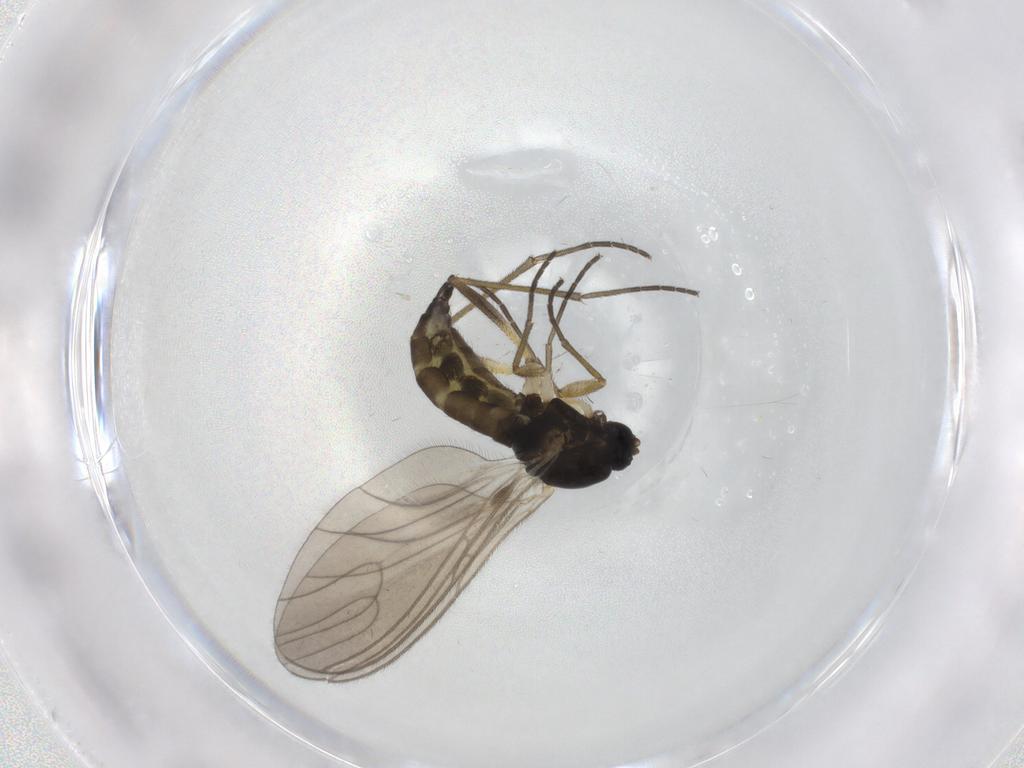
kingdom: Animalia
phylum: Arthropoda
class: Insecta
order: Diptera
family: Sciaridae
